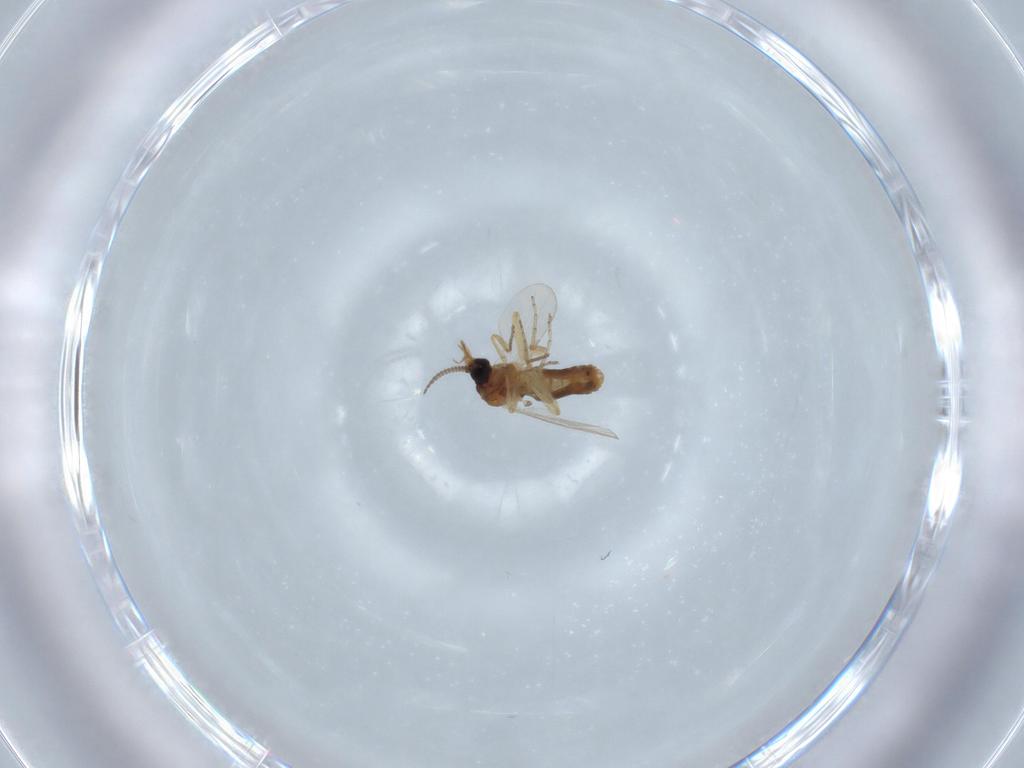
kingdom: Animalia
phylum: Arthropoda
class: Insecta
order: Diptera
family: Ceratopogonidae
